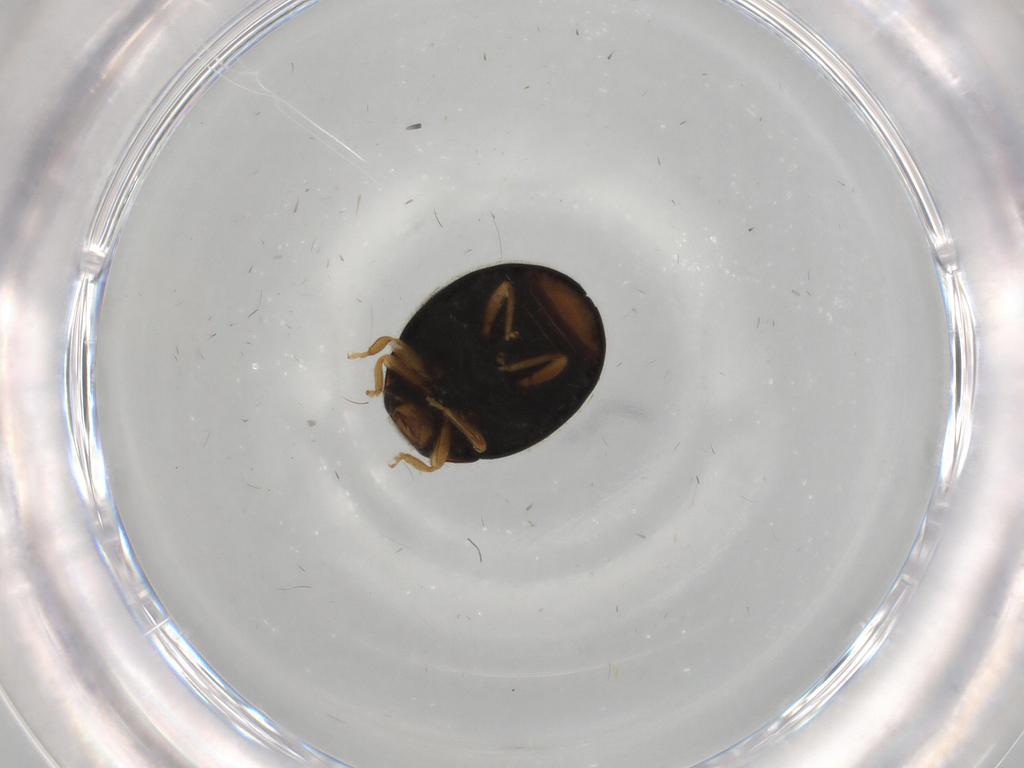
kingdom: Animalia
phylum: Arthropoda
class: Insecta
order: Coleoptera
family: Coccinellidae
